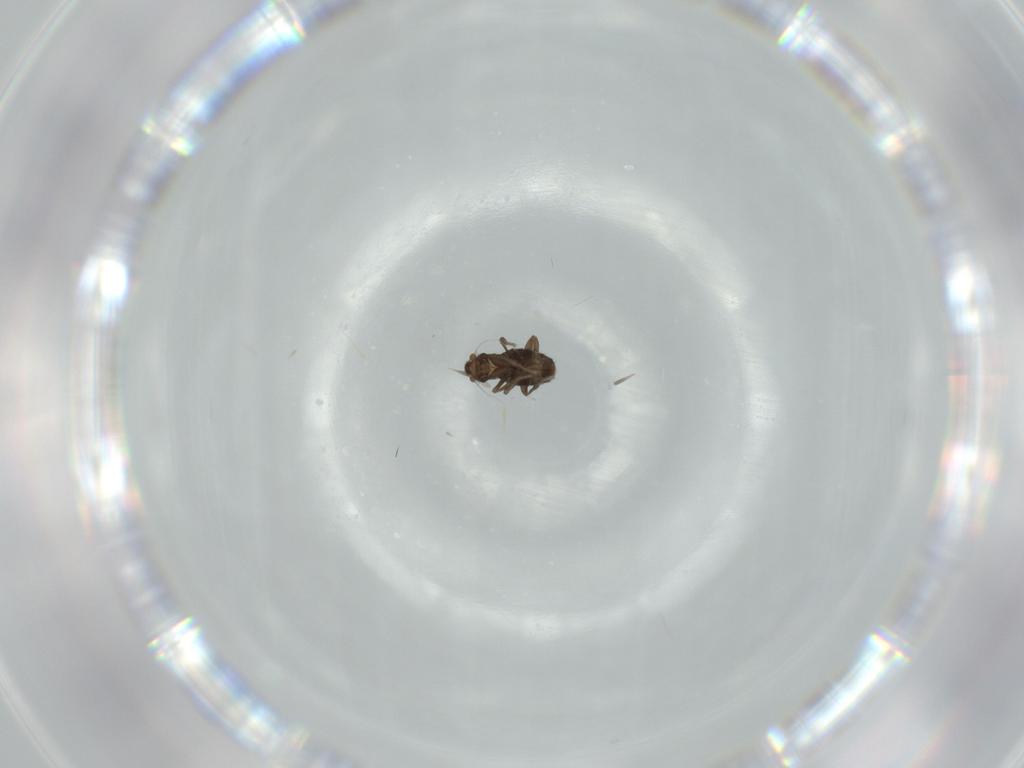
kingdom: Animalia
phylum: Arthropoda
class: Insecta
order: Diptera
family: Phoridae
